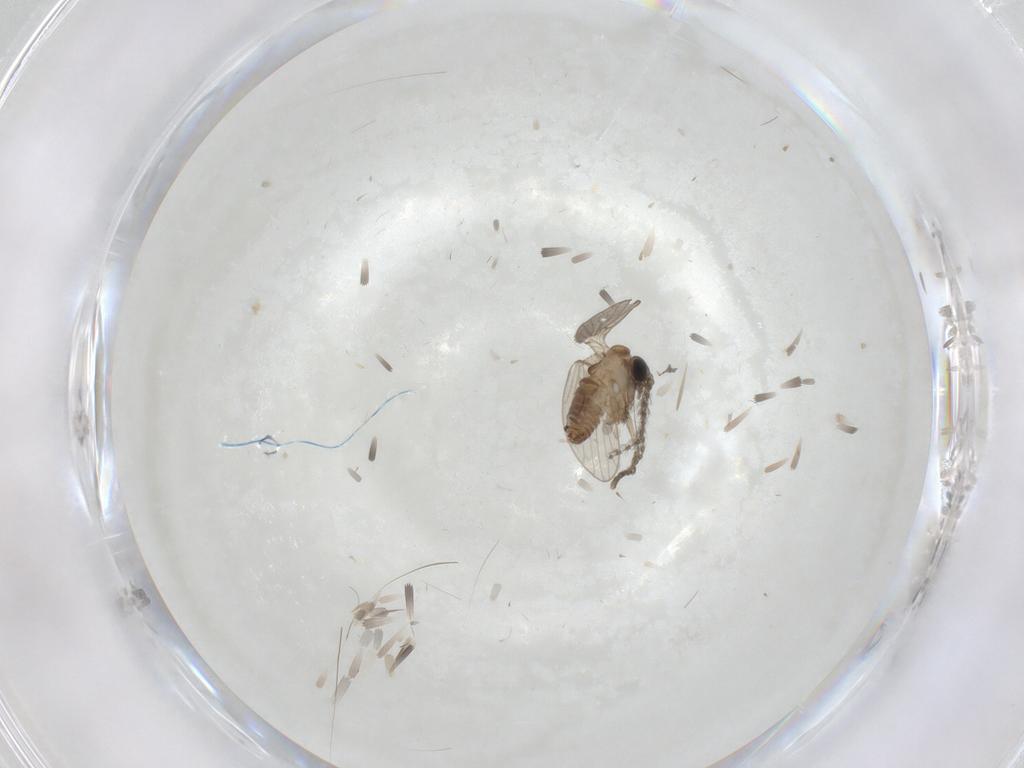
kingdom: Animalia
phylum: Arthropoda
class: Insecta
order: Diptera
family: Psychodidae
